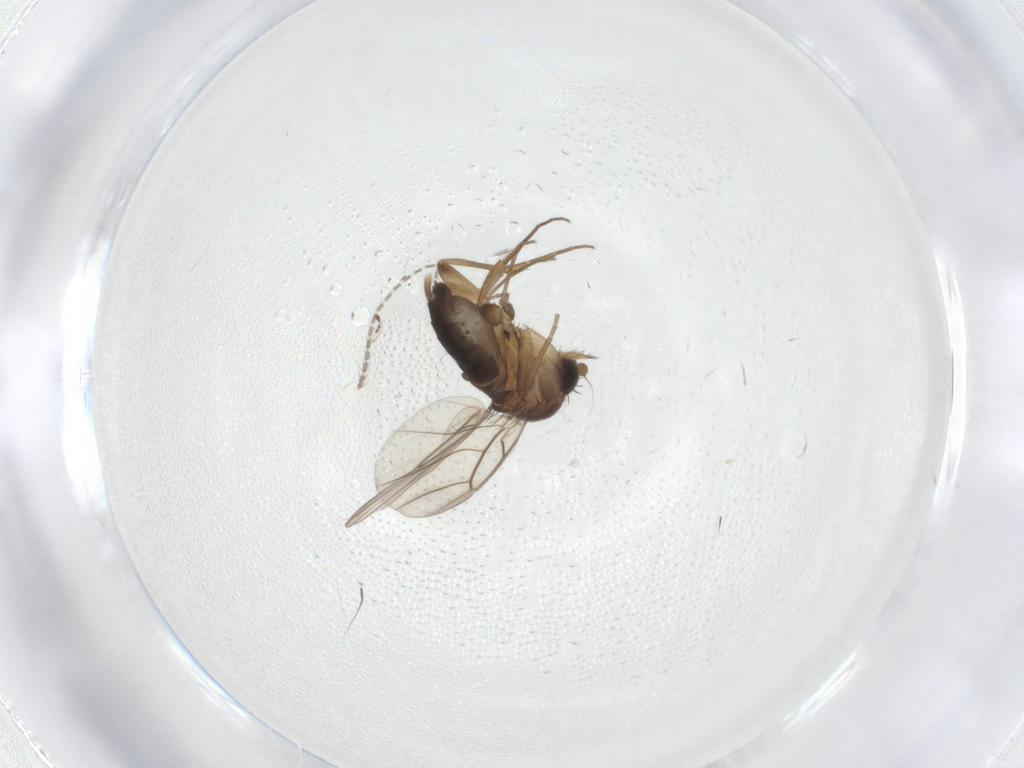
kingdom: Animalia
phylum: Arthropoda
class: Insecta
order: Diptera
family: Phoridae
